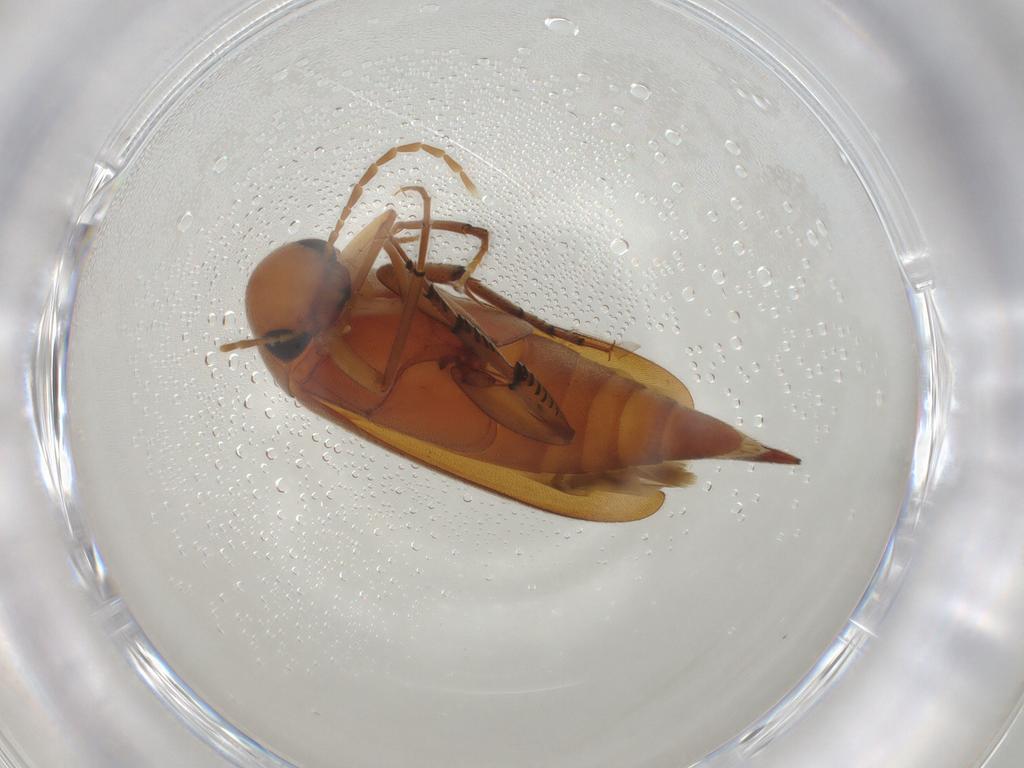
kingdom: Animalia
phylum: Arthropoda
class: Insecta
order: Coleoptera
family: Mordellidae
